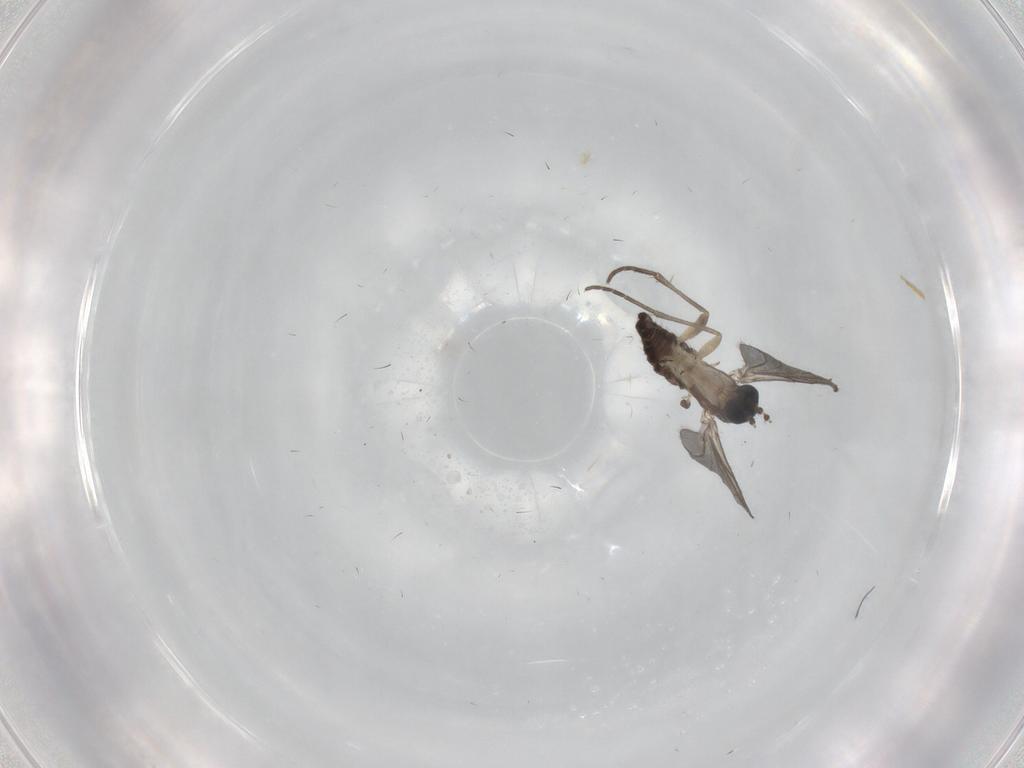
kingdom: Animalia
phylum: Arthropoda
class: Insecta
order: Diptera
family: Sciaridae
